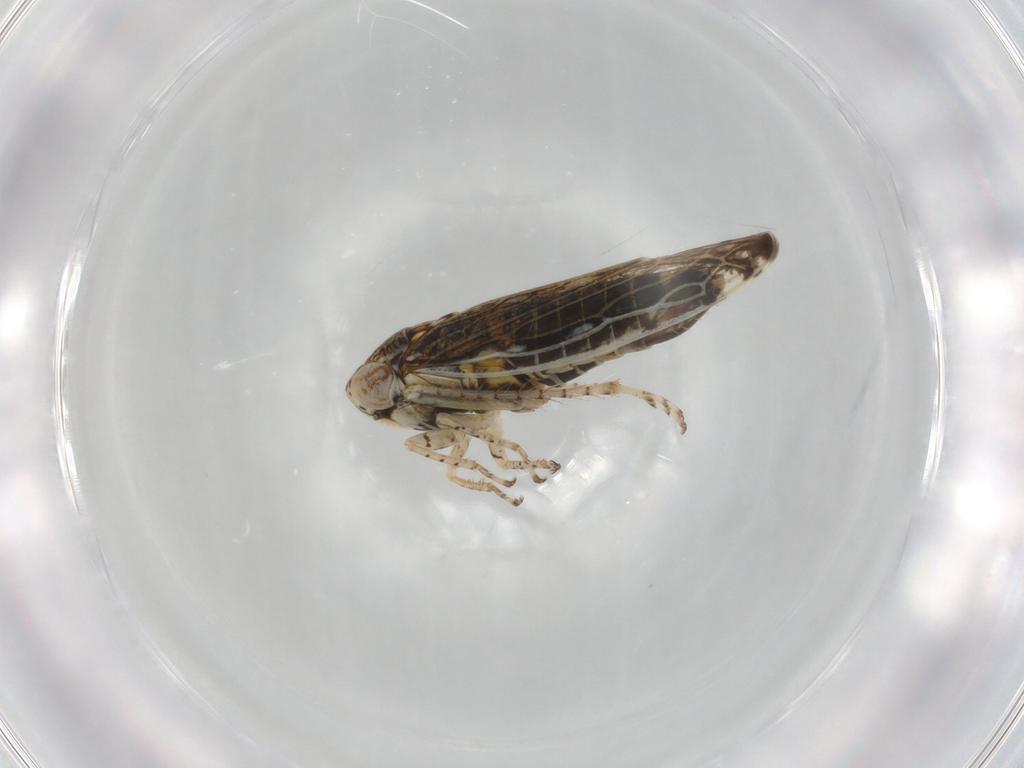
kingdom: Animalia
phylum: Arthropoda
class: Insecta
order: Hemiptera
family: Cicadellidae
